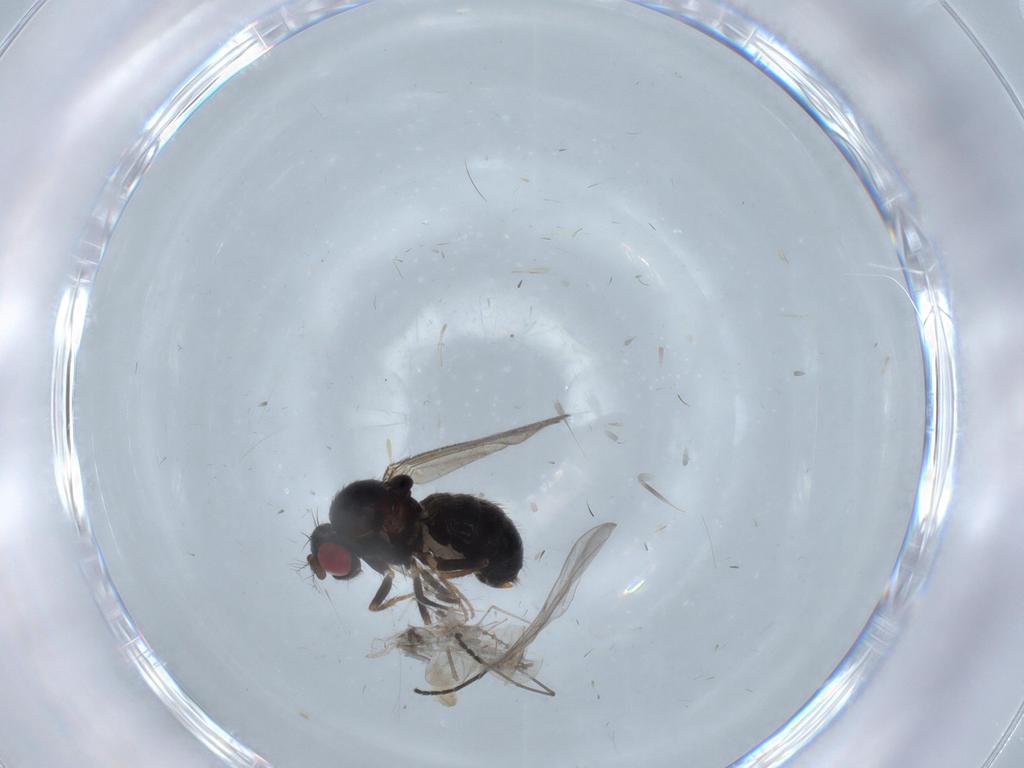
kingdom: Animalia
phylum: Arthropoda
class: Insecta
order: Diptera
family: Drosophilidae
